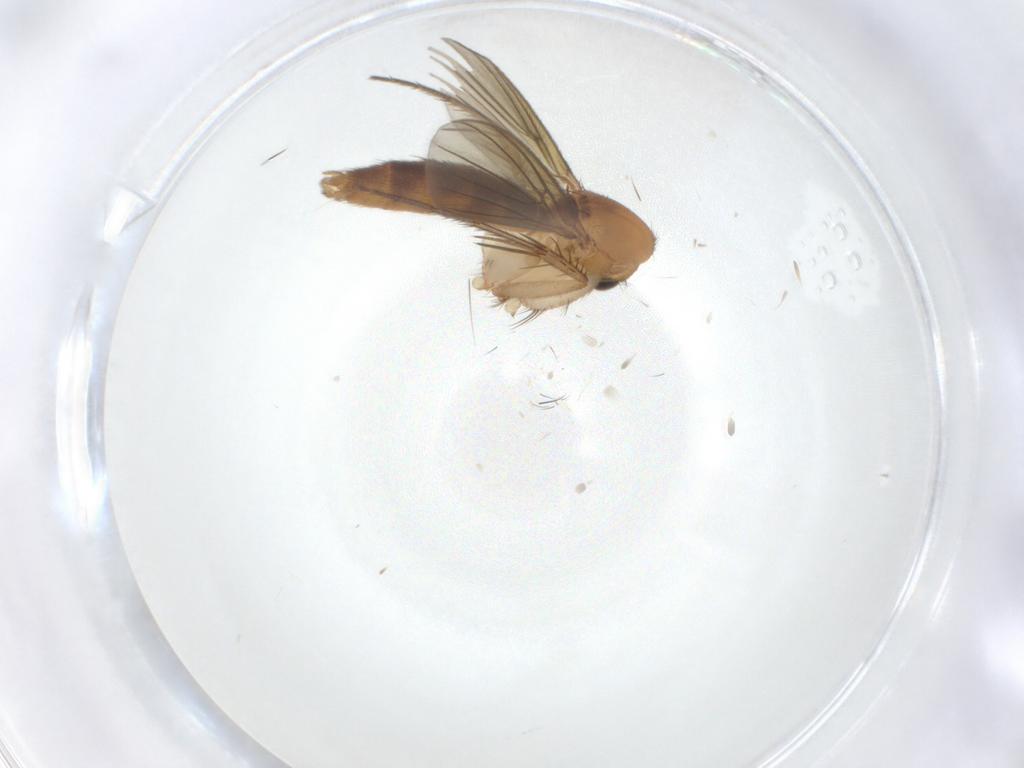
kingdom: Animalia
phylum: Arthropoda
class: Insecta
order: Diptera
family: Mycetophilidae
